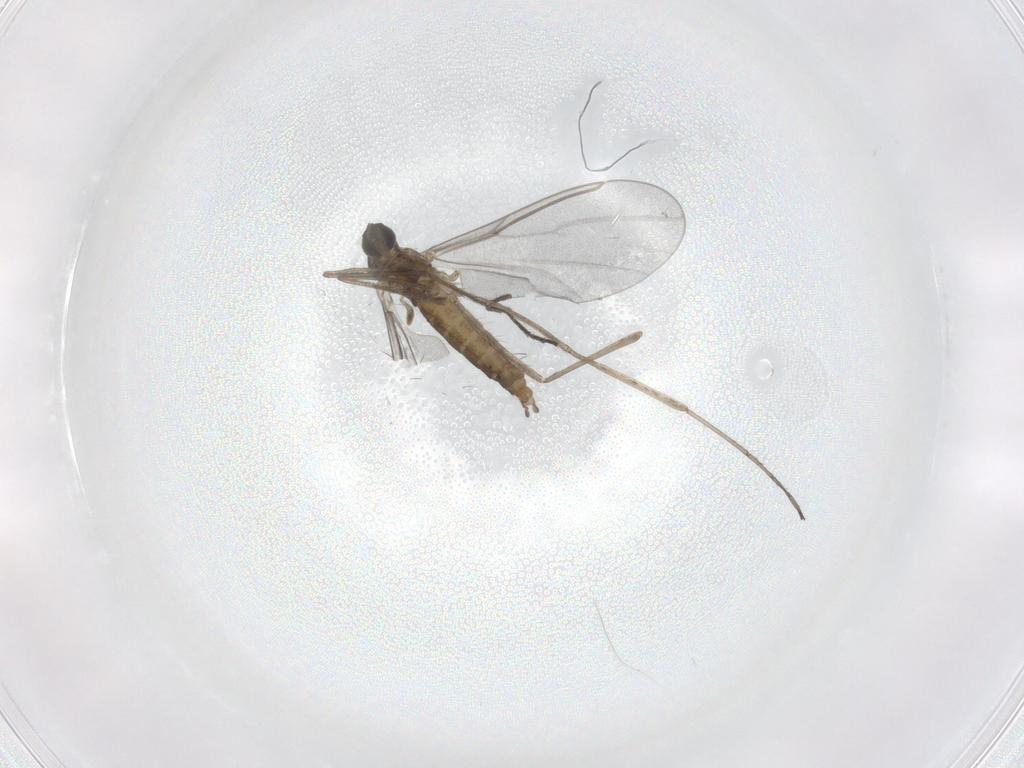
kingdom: Animalia
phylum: Arthropoda
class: Insecta
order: Diptera
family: Cecidomyiidae
